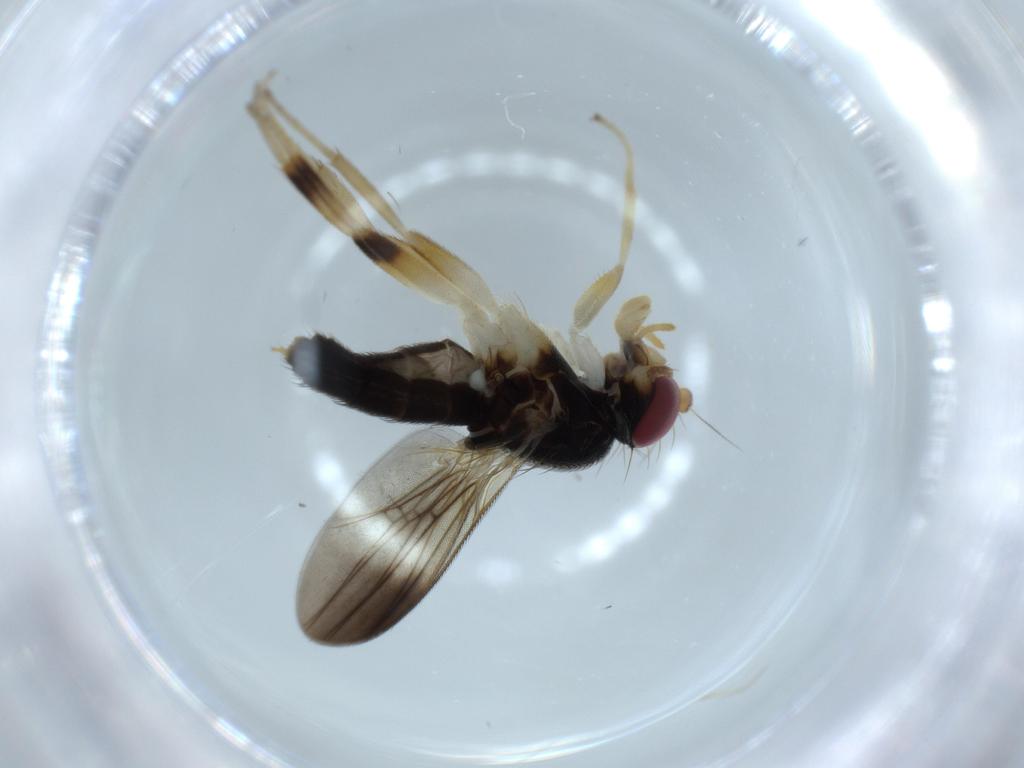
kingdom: Animalia
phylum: Arthropoda
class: Insecta
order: Diptera
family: Clusiidae
